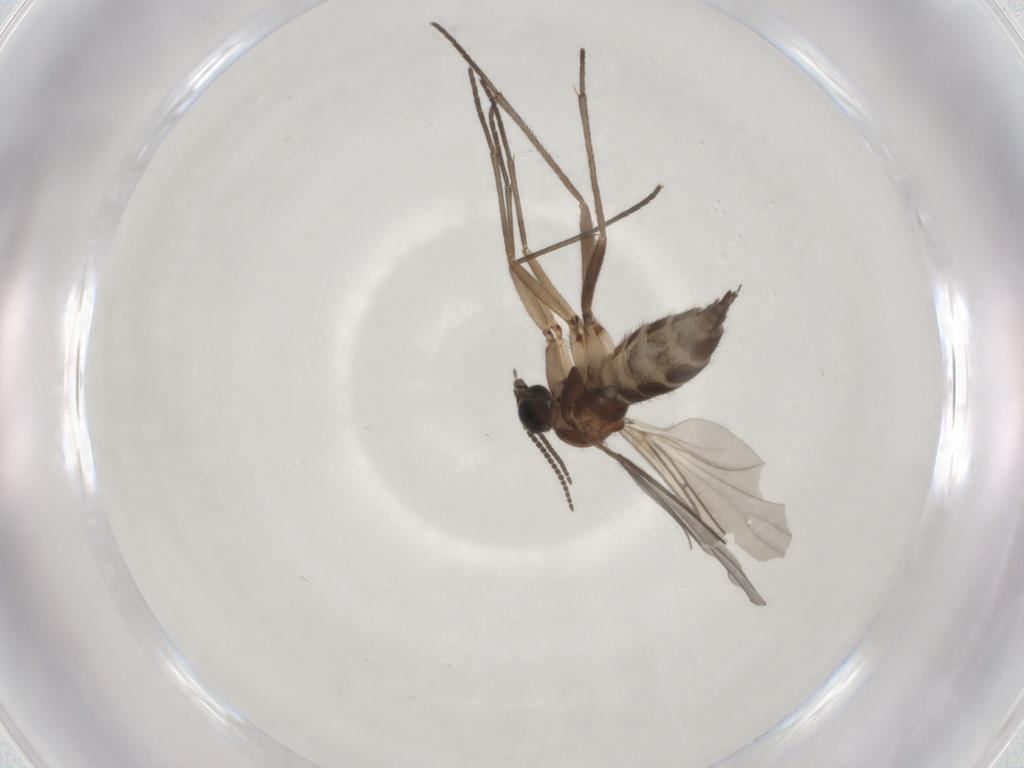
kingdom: Animalia
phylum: Arthropoda
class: Insecta
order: Diptera
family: Sciaridae
